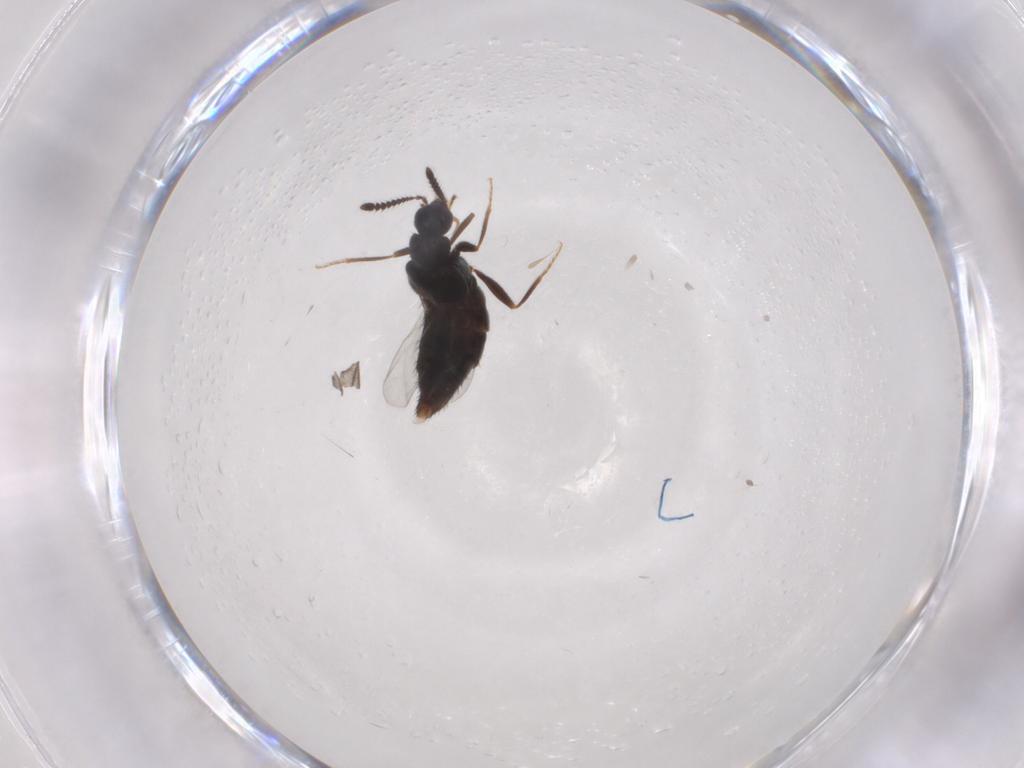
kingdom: Animalia
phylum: Arthropoda
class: Insecta
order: Coleoptera
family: Staphylinidae
